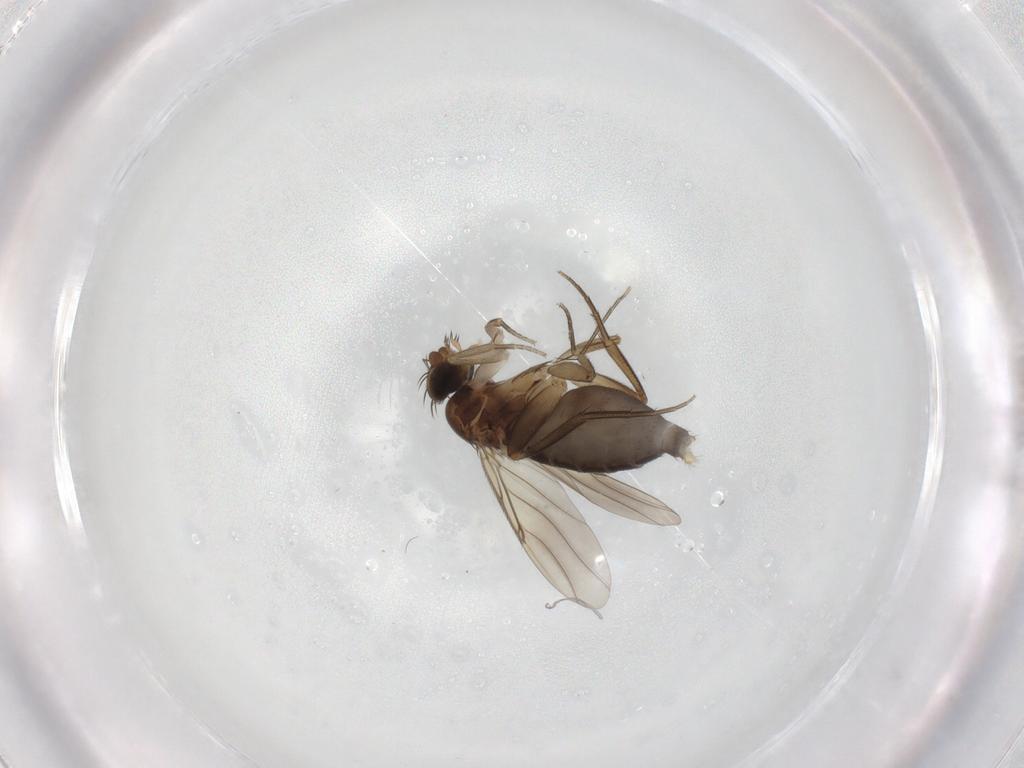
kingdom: Animalia
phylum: Arthropoda
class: Insecta
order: Diptera
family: Phoridae
